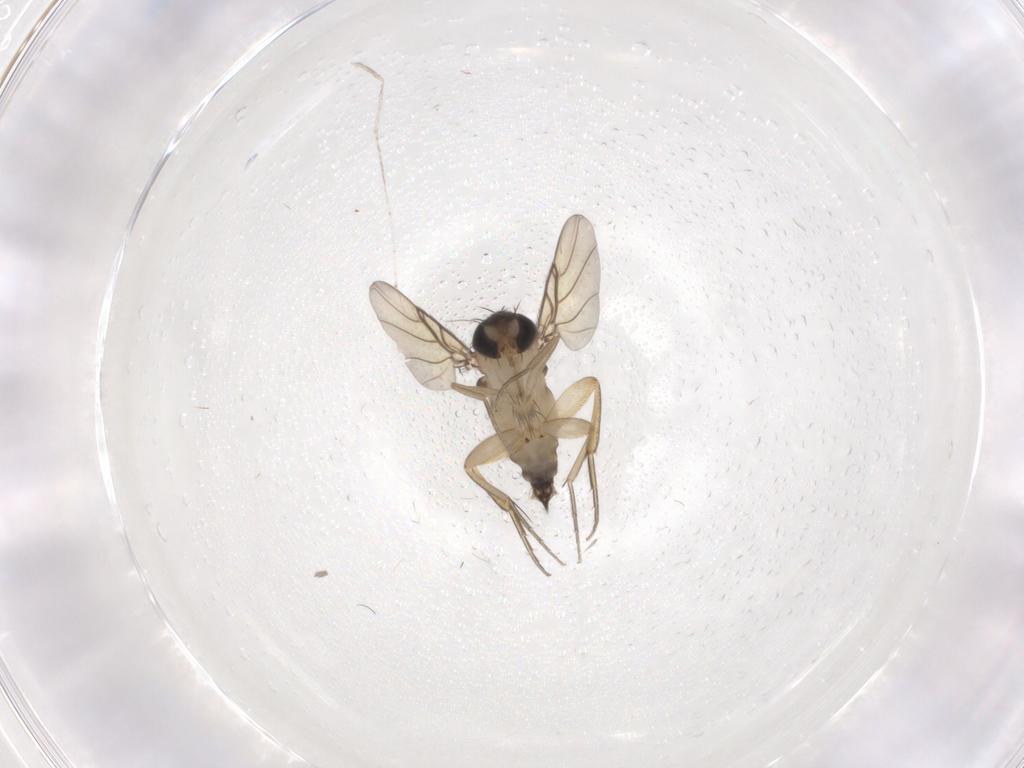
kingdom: Animalia
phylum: Arthropoda
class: Insecta
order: Diptera
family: Phoridae
